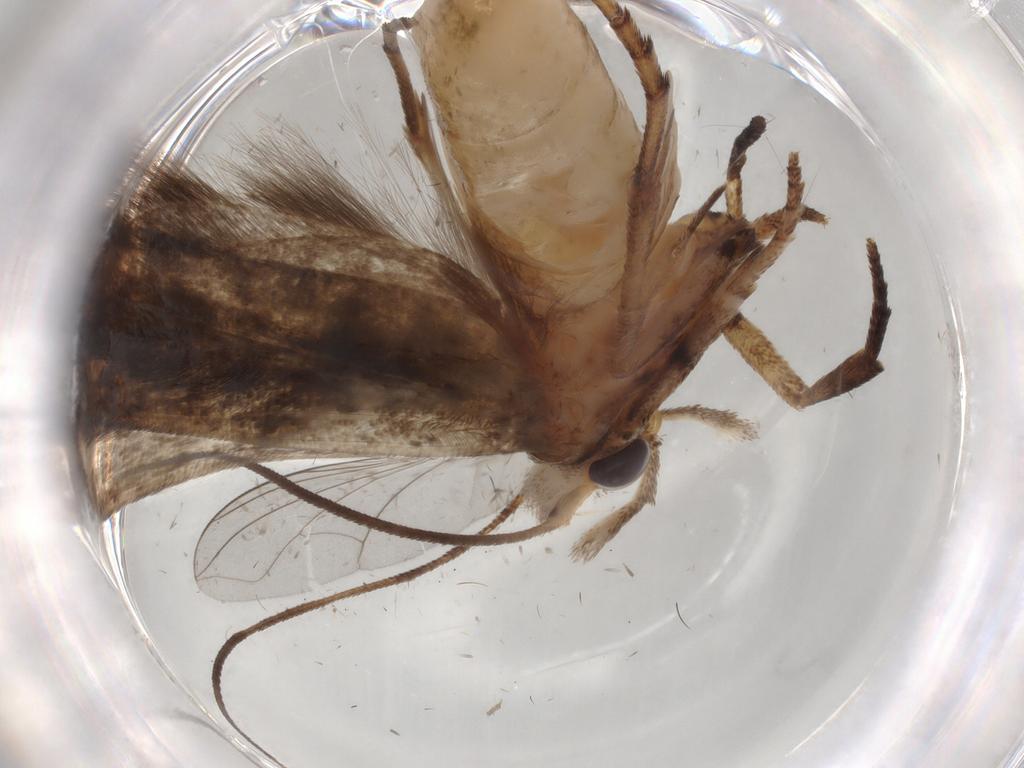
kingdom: Animalia
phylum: Arthropoda
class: Insecta
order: Lepidoptera
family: Yponomeutidae
